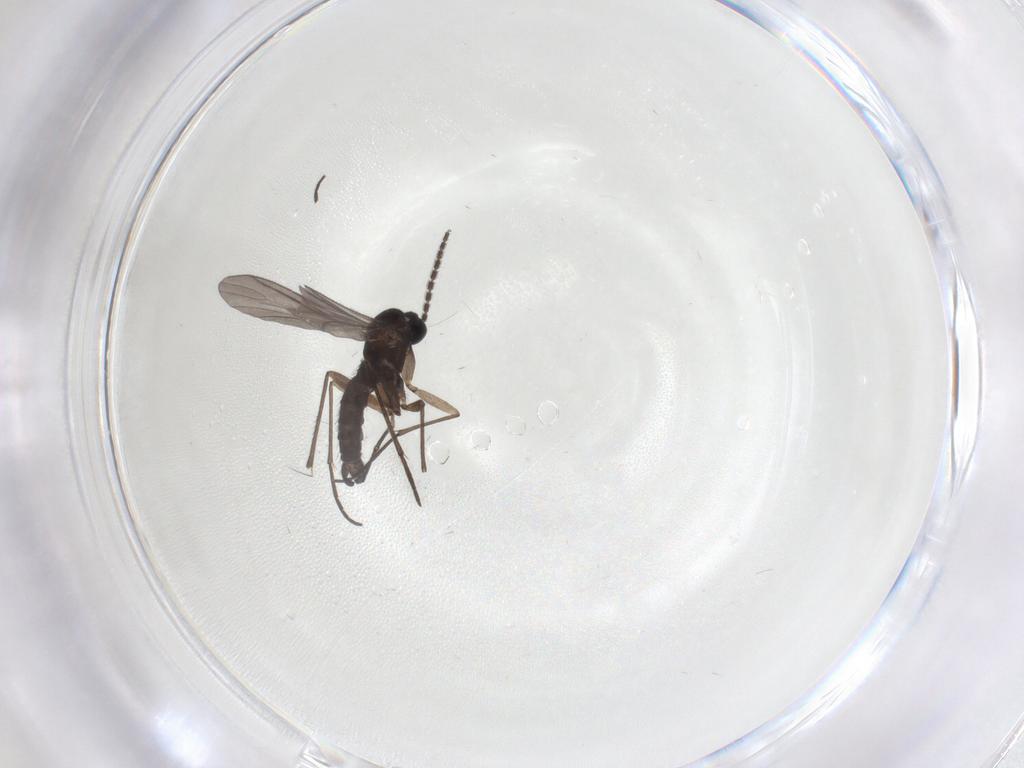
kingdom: Animalia
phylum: Arthropoda
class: Insecta
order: Diptera
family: Sciaridae
